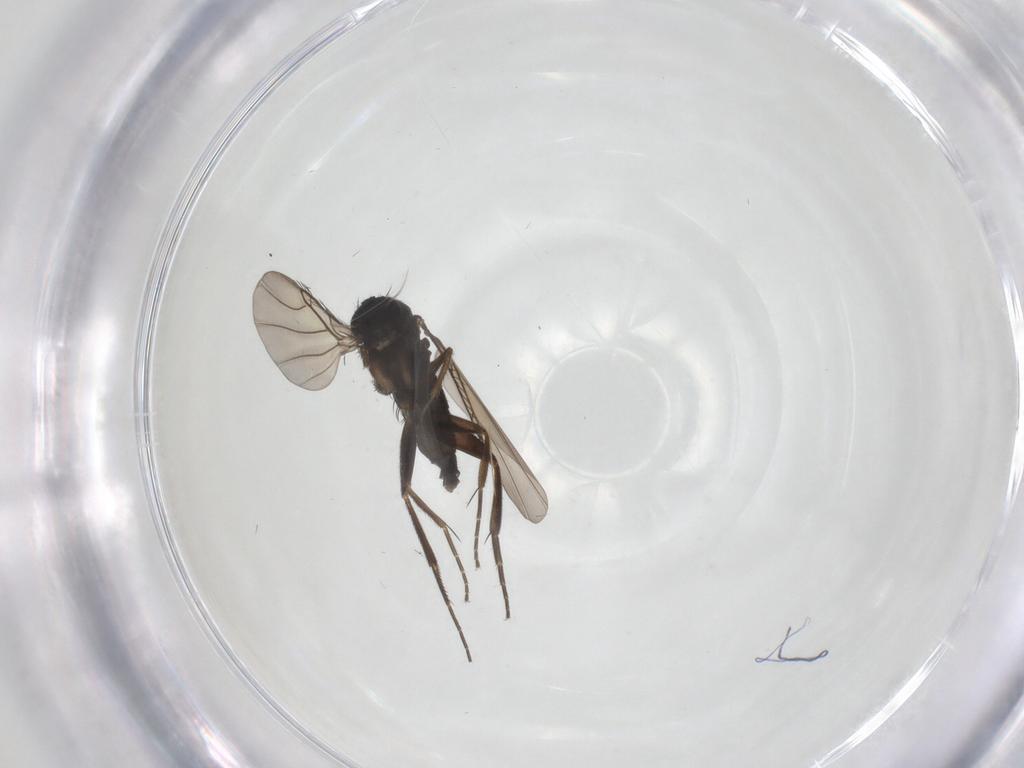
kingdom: Animalia
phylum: Arthropoda
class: Insecta
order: Diptera
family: Phoridae
